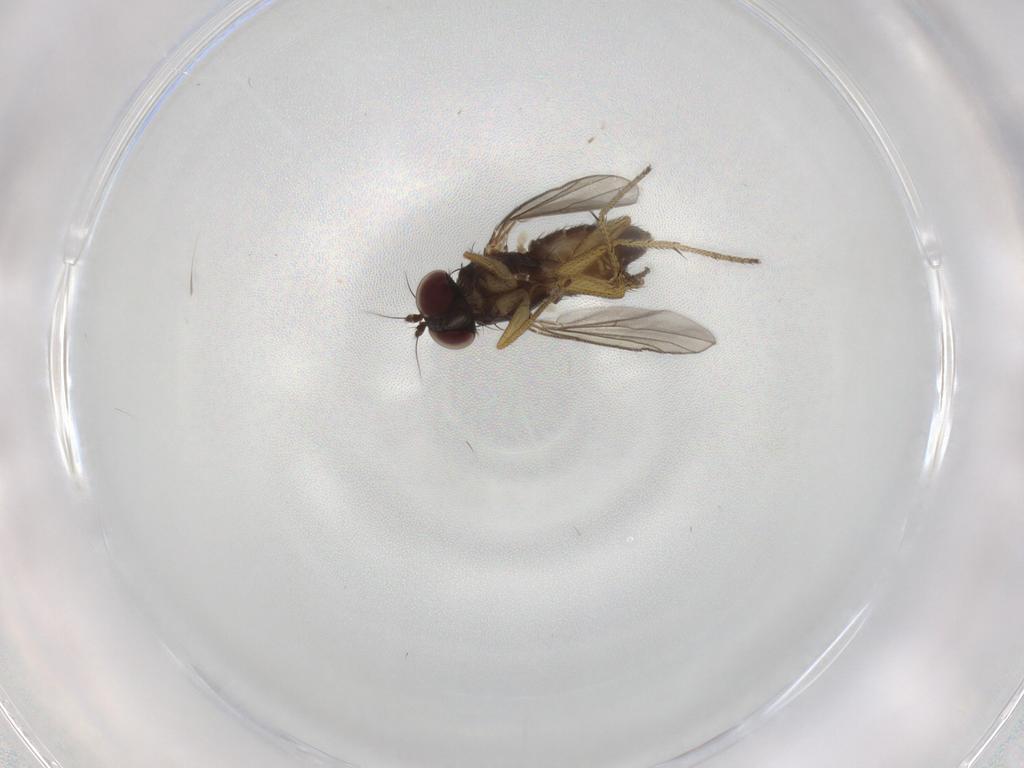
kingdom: Animalia
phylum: Arthropoda
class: Insecta
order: Diptera
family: Dolichopodidae
